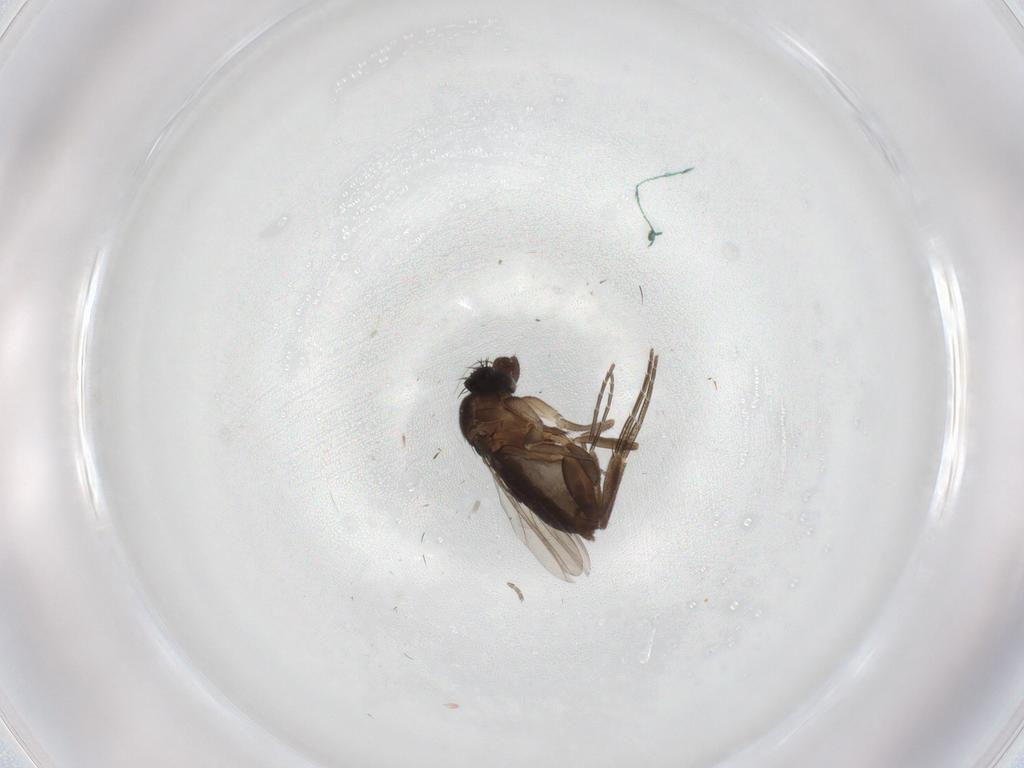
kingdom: Animalia
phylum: Arthropoda
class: Insecta
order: Diptera
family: Phoridae
